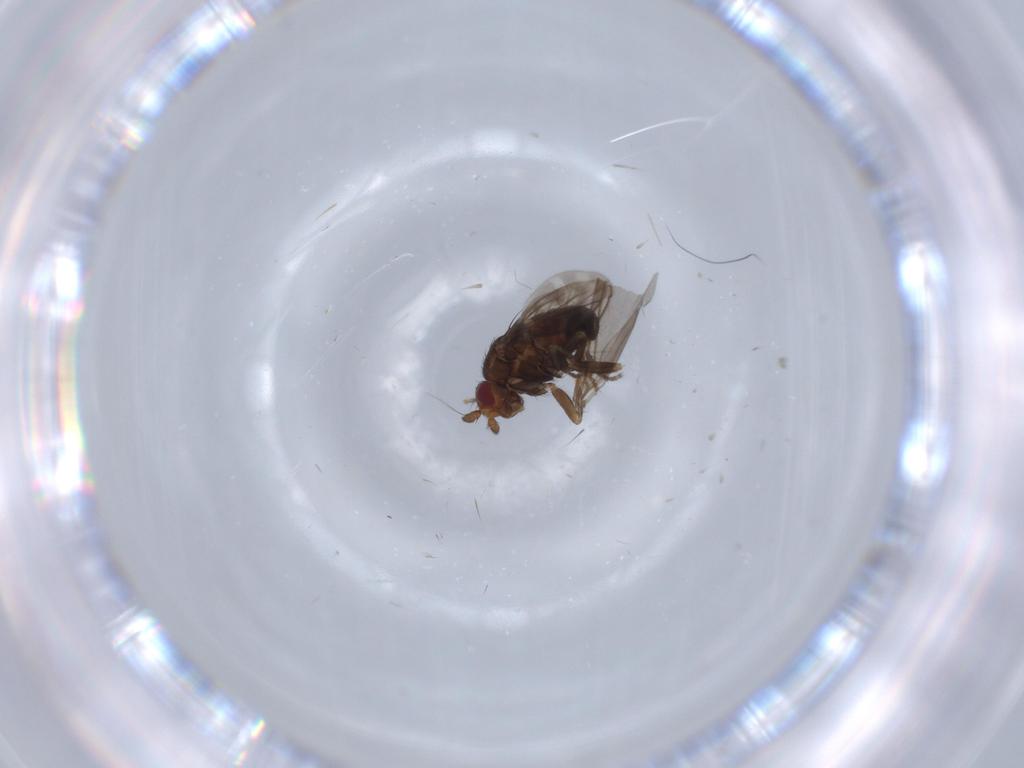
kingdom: Animalia
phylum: Arthropoda
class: Insecta
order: Diptera
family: Sphaeroceridae
